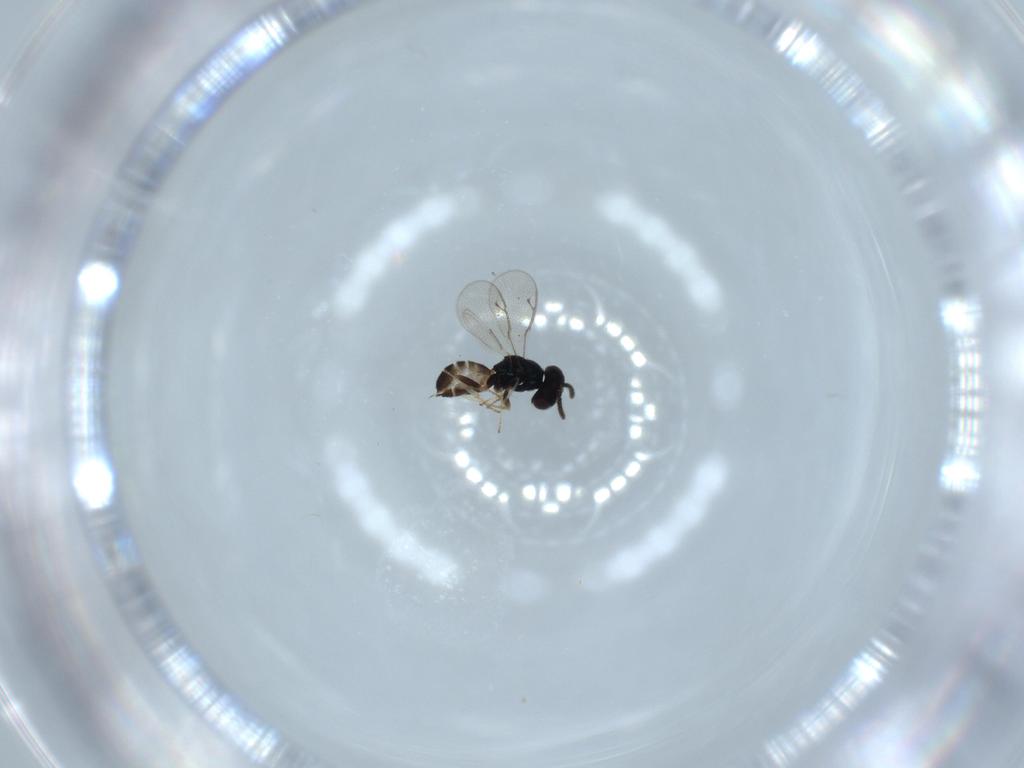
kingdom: Animalia
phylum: Arthropoda
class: Insecta
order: Hymenoptera
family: Pteromalidae
